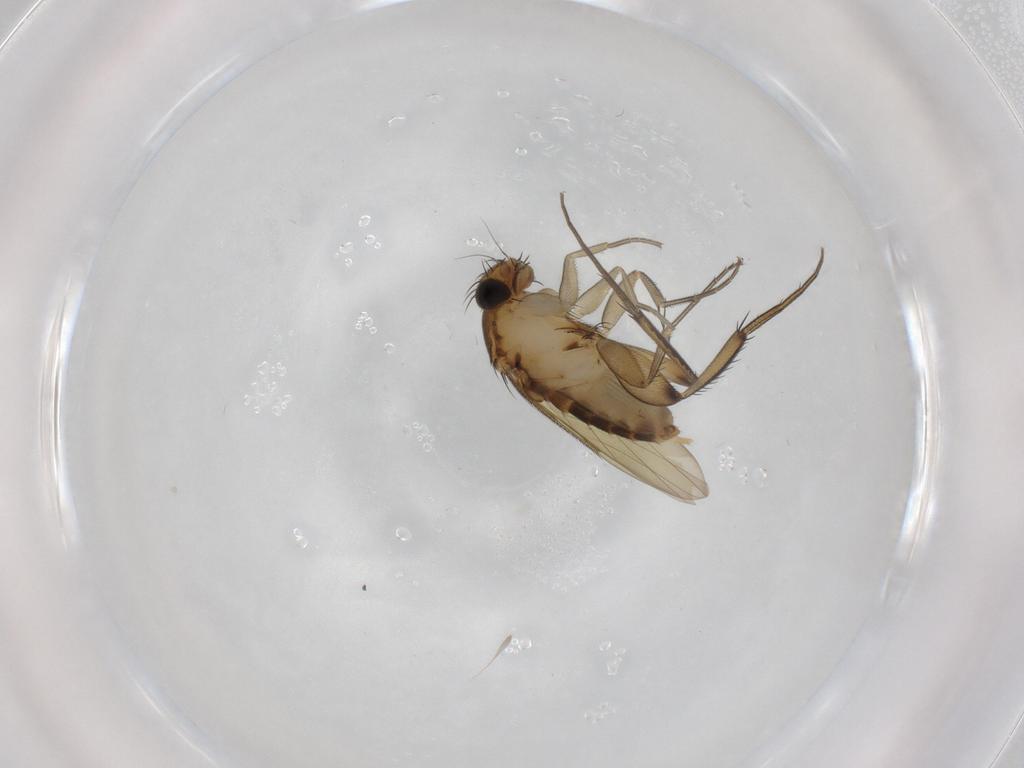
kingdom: Animalia
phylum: Arthropoda
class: Insecta
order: Diptera
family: Phoridae
